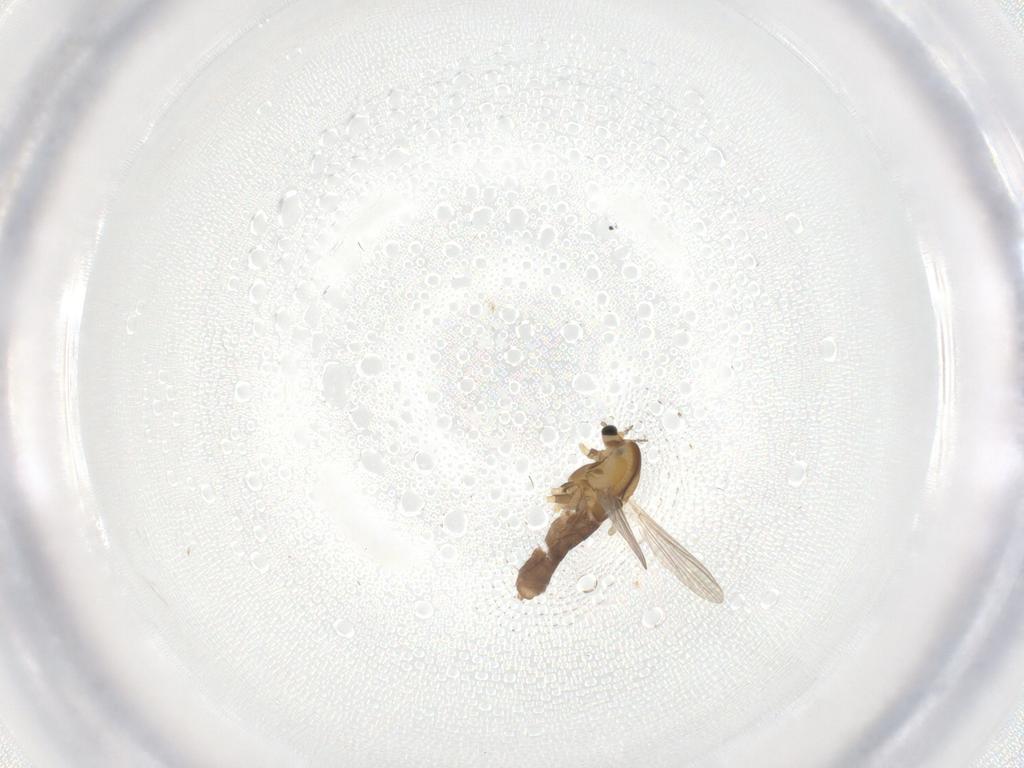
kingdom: Animalia
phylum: Arthropoda
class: Insecta
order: Diptera
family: Chironomidae
